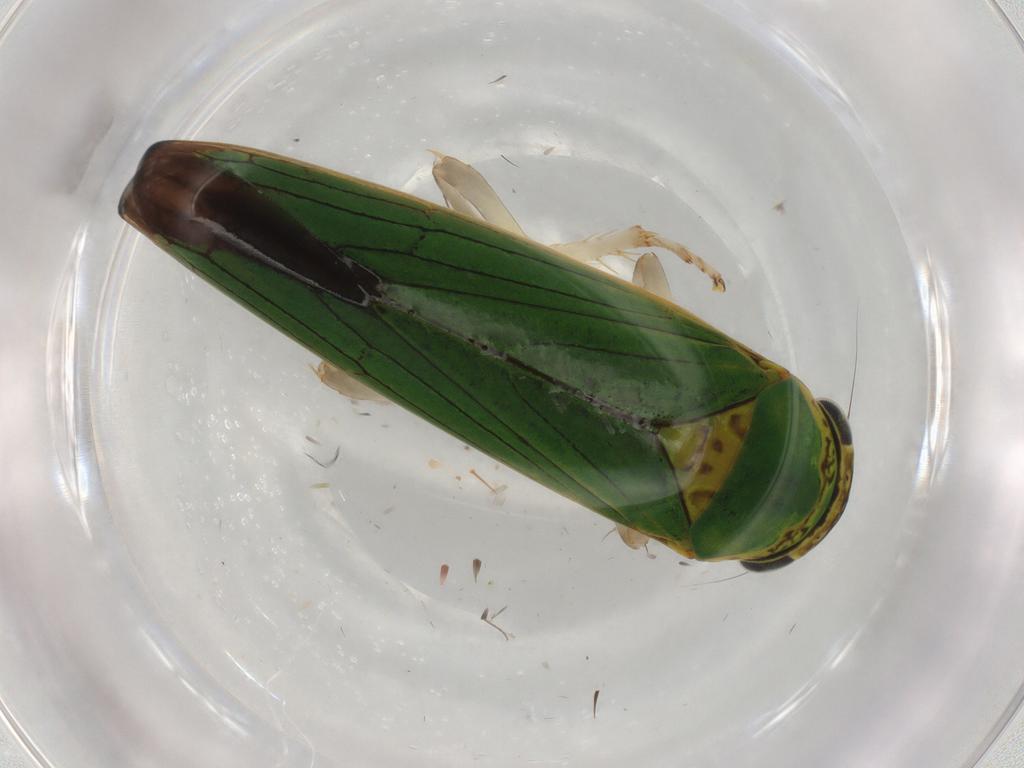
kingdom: Animalia
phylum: Arthropoda
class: Insecta
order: Hemiptera
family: Cicadellidae
